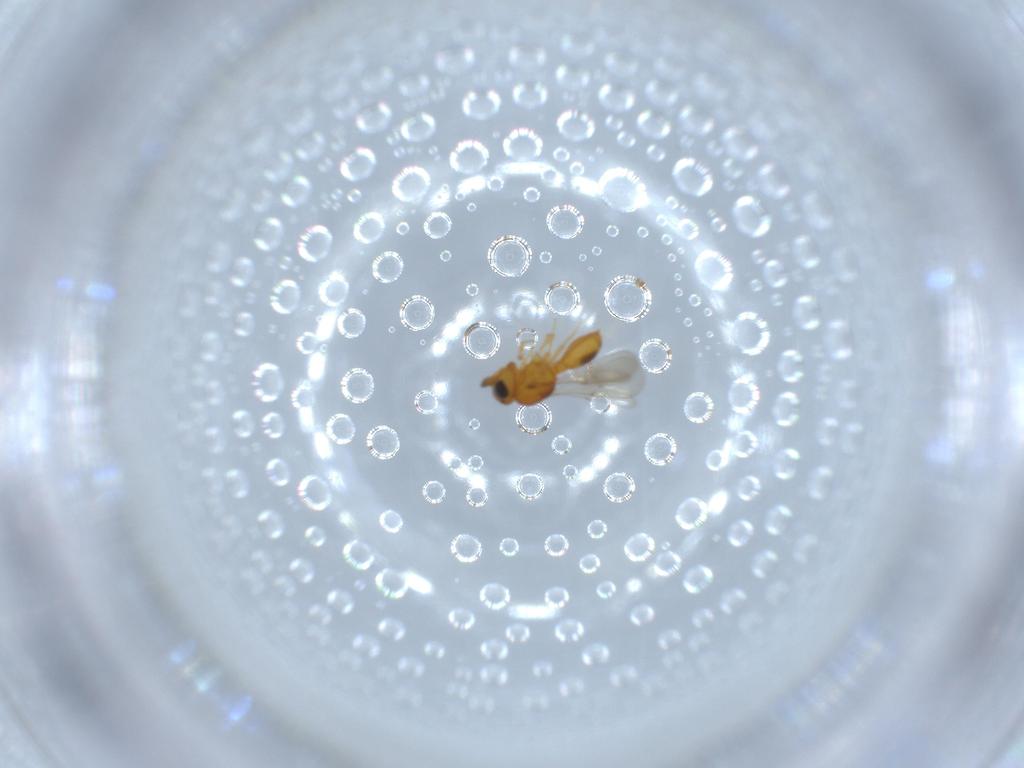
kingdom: Animalia
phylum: Arthropoda
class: Insecta
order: Hymenoptera
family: Scelionidae
